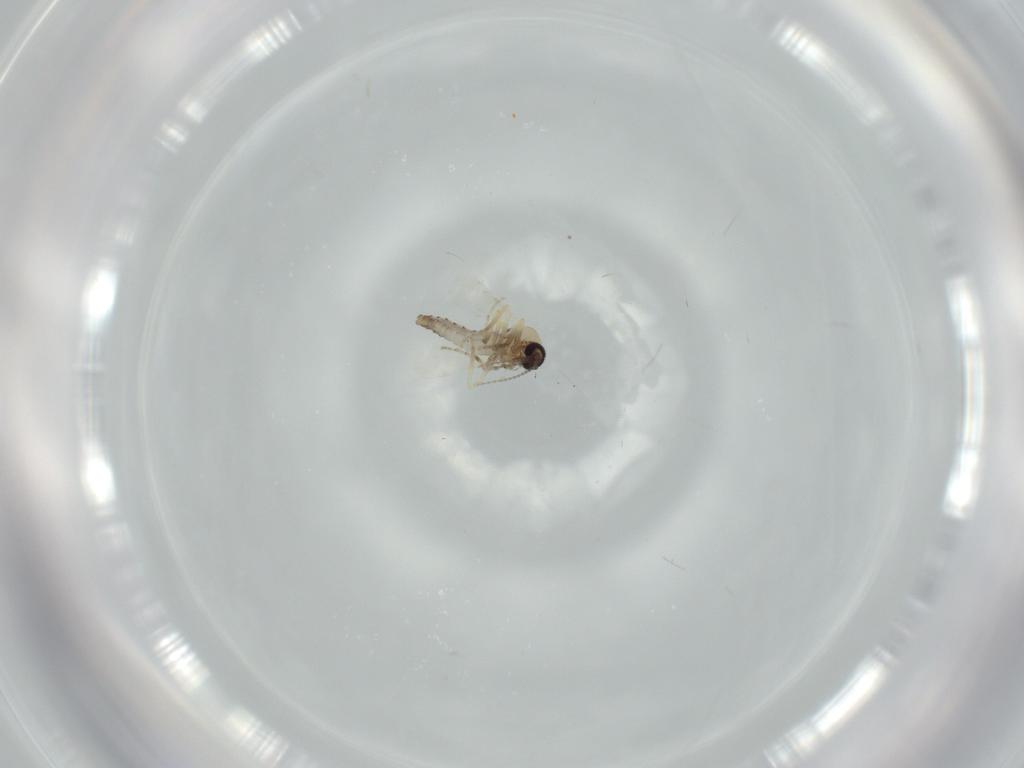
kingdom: Animalia
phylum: Arthropoda
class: Insecta
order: Diptera
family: Ceratopogonidae
